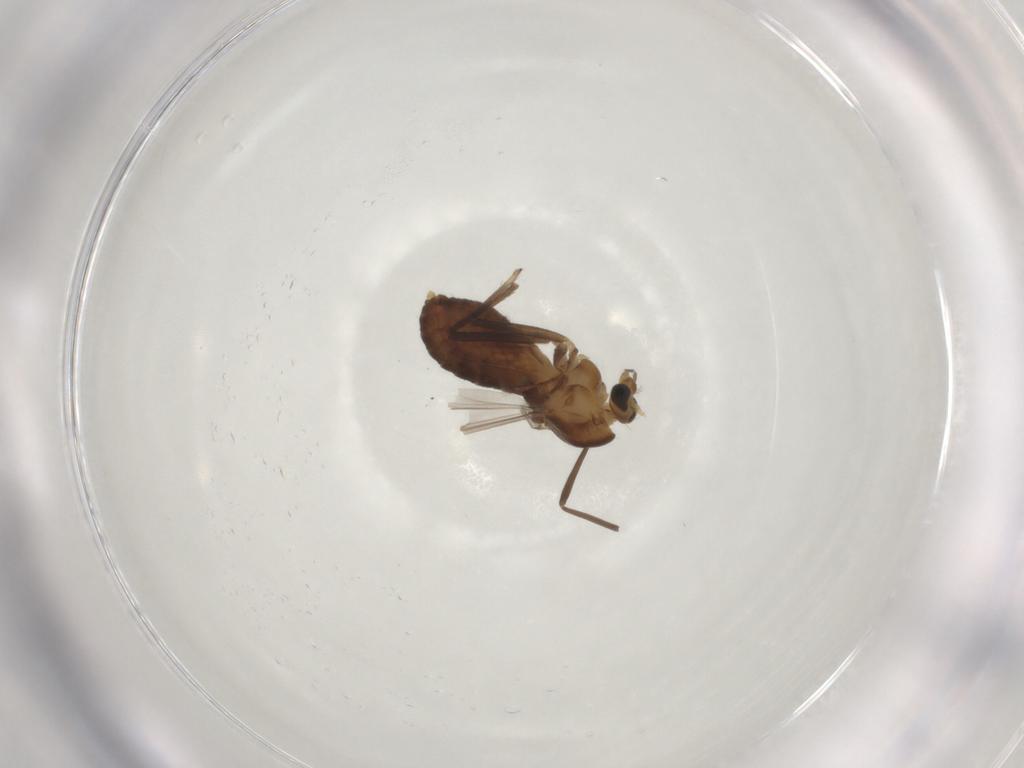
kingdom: Animalia
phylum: Arthropoda
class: Insecta
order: Diptera
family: Chironomidae
